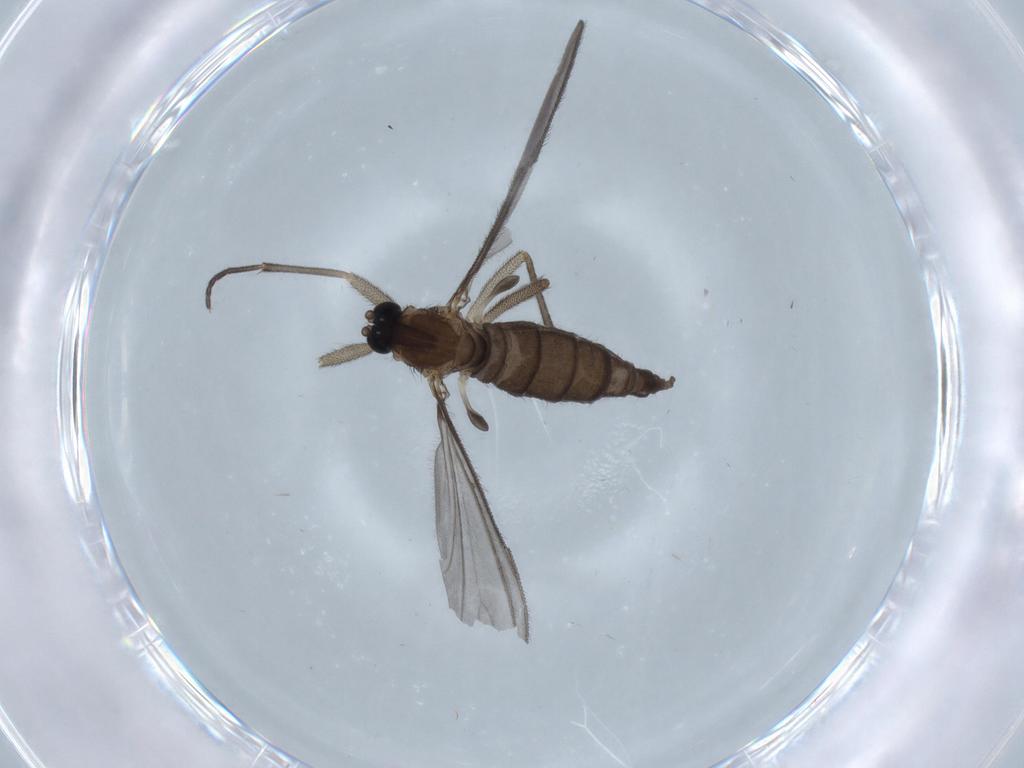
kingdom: Animalia
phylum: Arthropoda
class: Insecta
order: Diptera
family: Sciaridae
